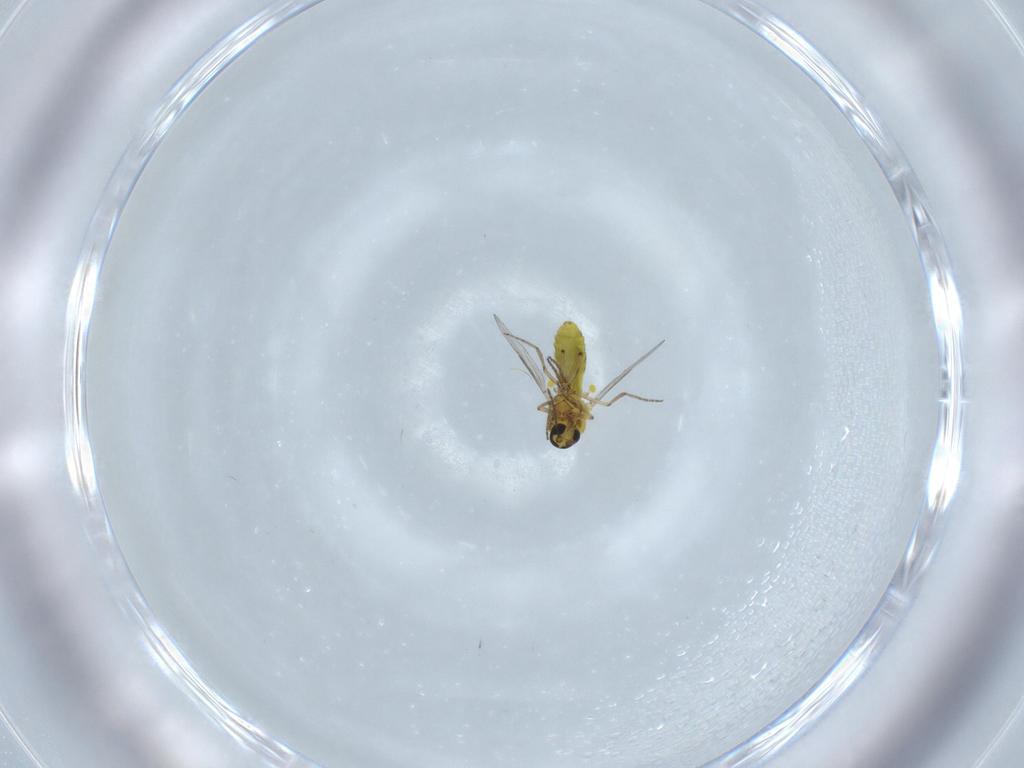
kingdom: Animalia
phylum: Arthropoda
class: Insecta
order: Diptera
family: Ceratopogonidae
